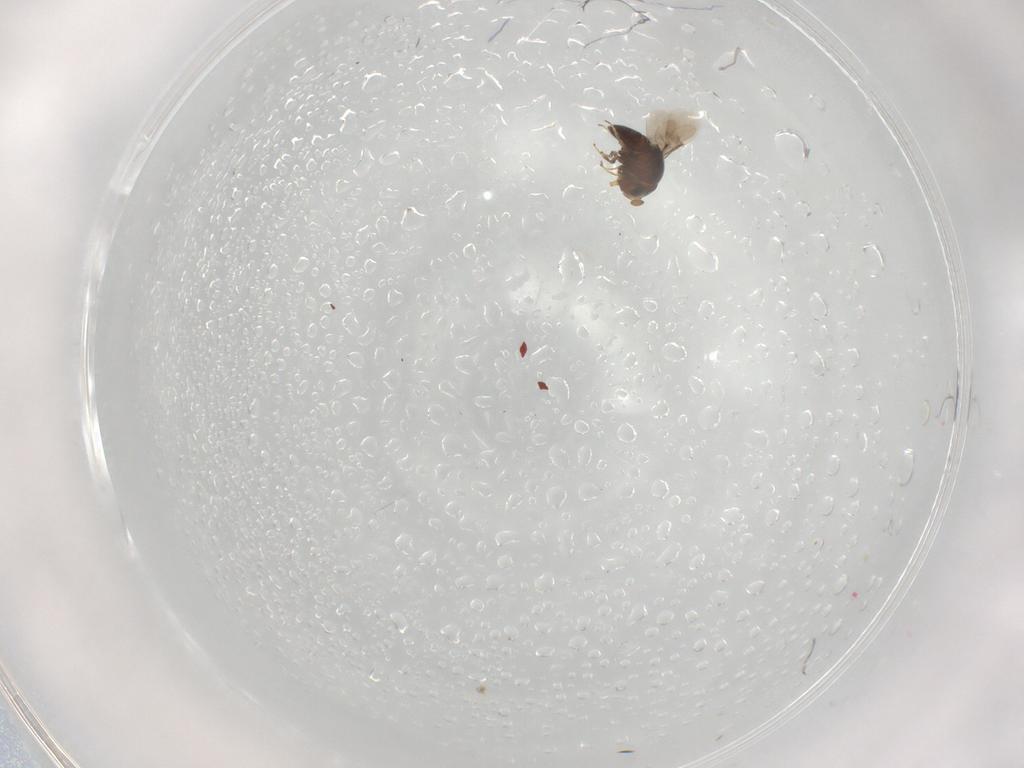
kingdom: Animalia
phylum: Arthropoda
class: Insecta
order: Hymenoptera
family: Scelionidae
